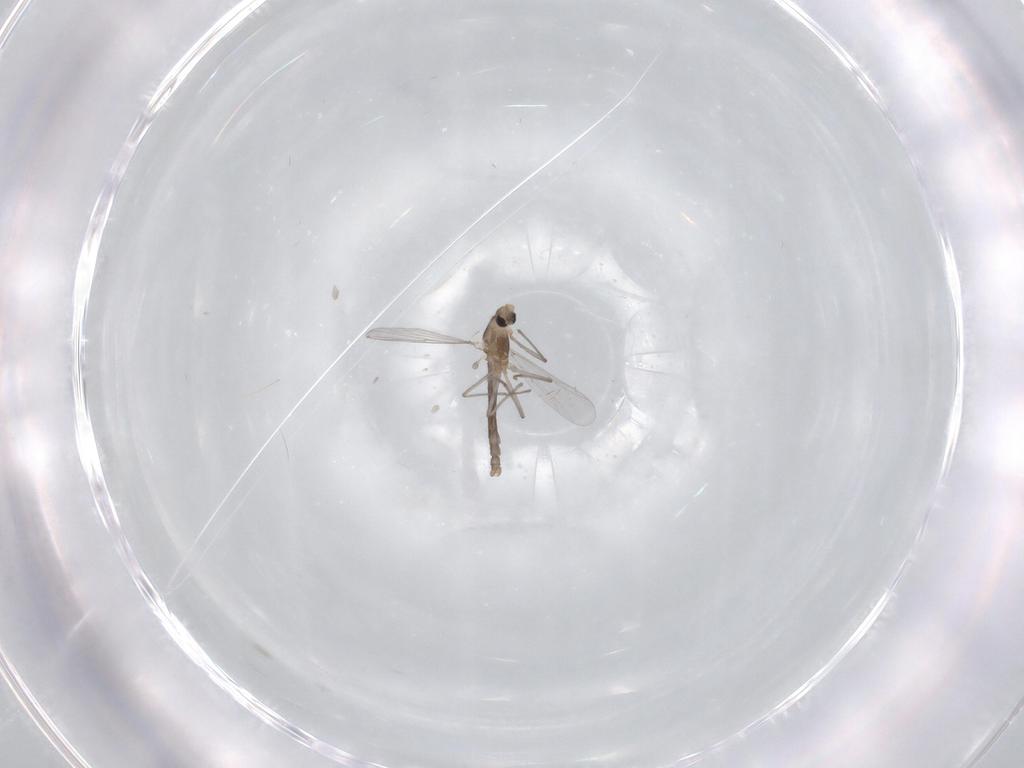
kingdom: Animalia
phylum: Arthropoda
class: Insecta
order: Diptera
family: Phoridae
